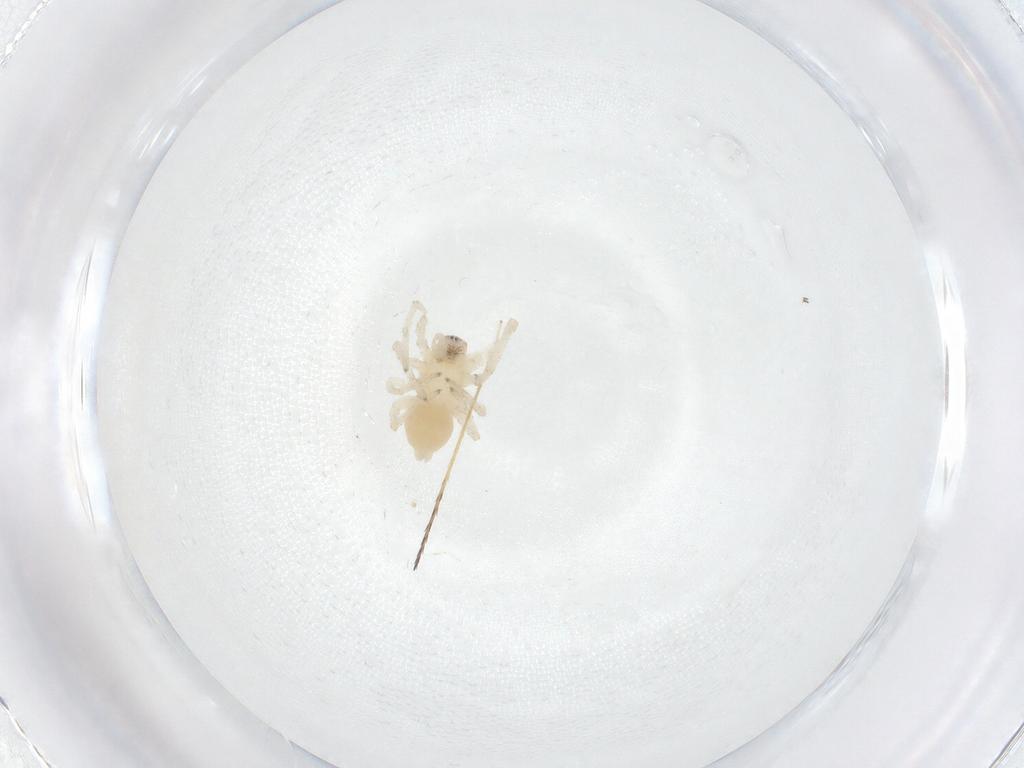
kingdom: Animalia
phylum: Arthropoda
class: Arachnida
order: Araneae
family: Anyphaenidae
